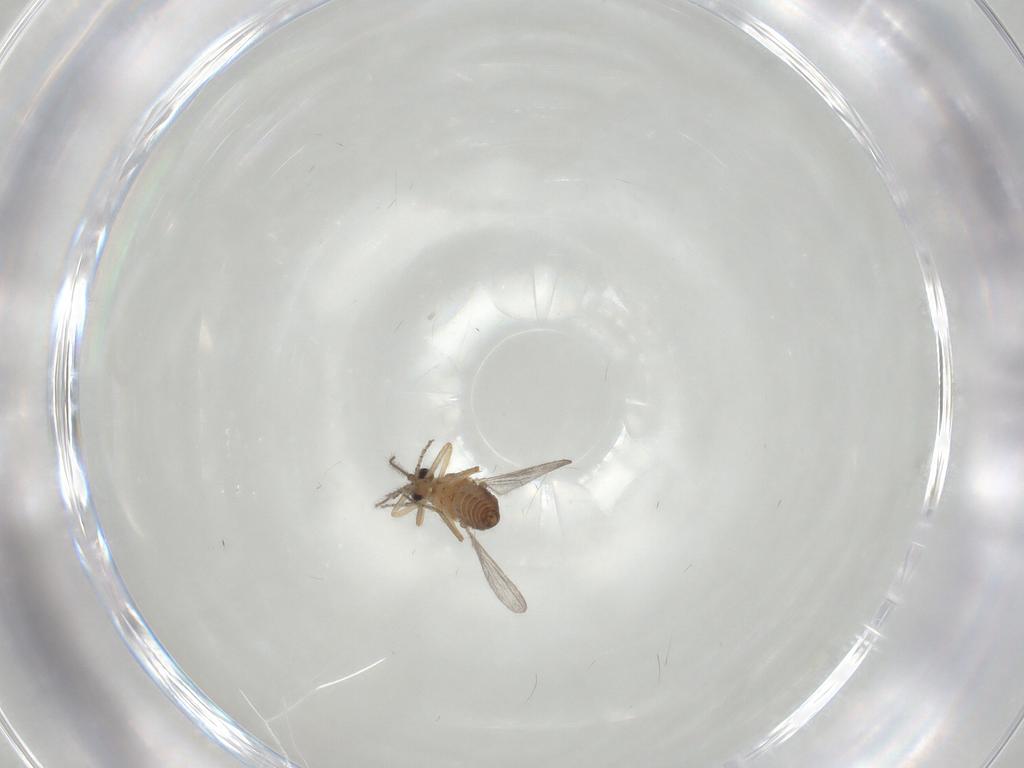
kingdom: Animalia
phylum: Arthropoda
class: Insecta
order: Diptera
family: Ceratopogonidae
